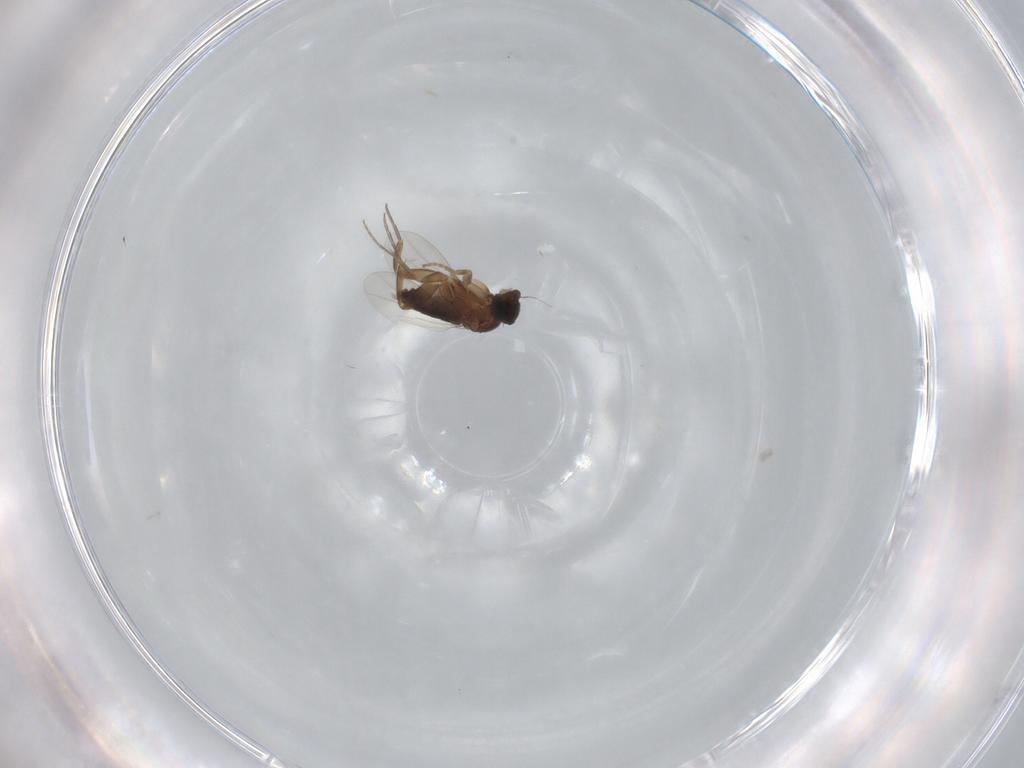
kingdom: Animalia
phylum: Arthropoda
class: Insecta
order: Diptera
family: Phoridae
